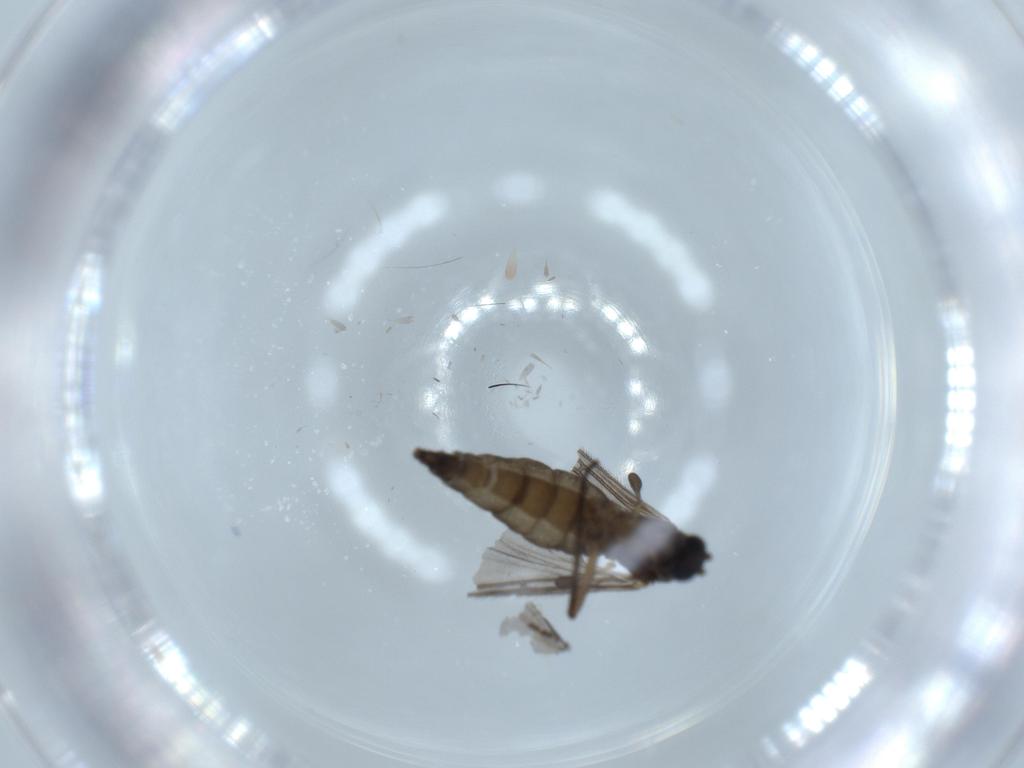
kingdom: Animalia
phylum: Arthropoda
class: Insecta
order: Diptera
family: Sciaridae
